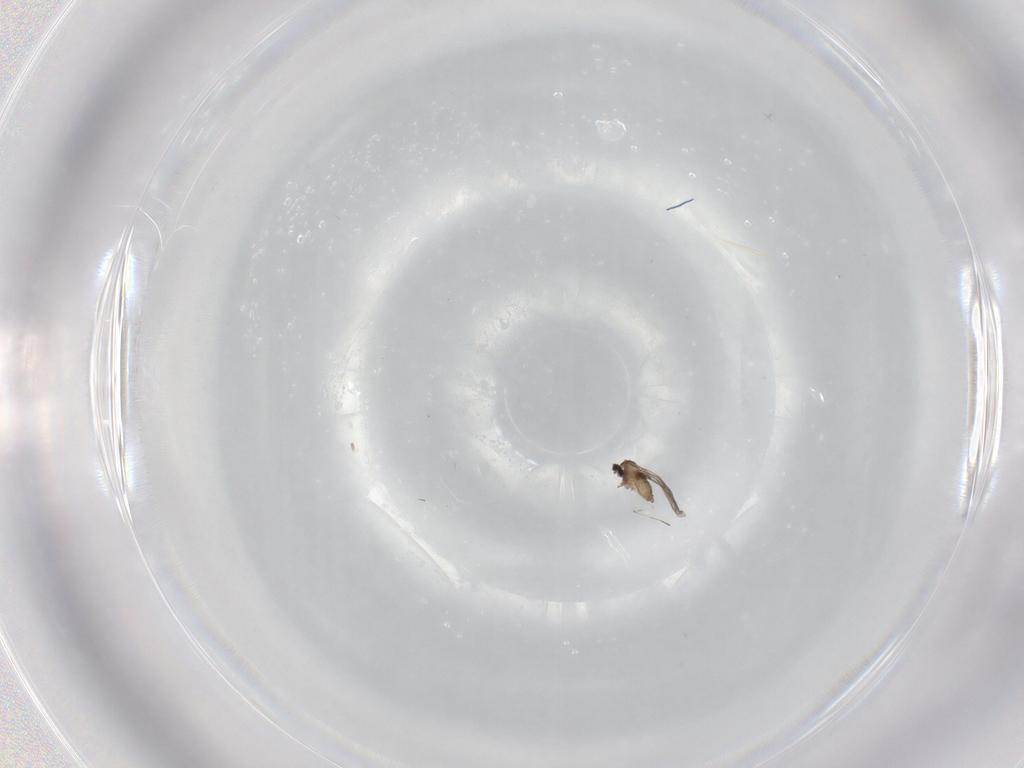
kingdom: Animalia
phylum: Arthropoda
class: Insecta
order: Diptera
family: Cecidomyiidae
